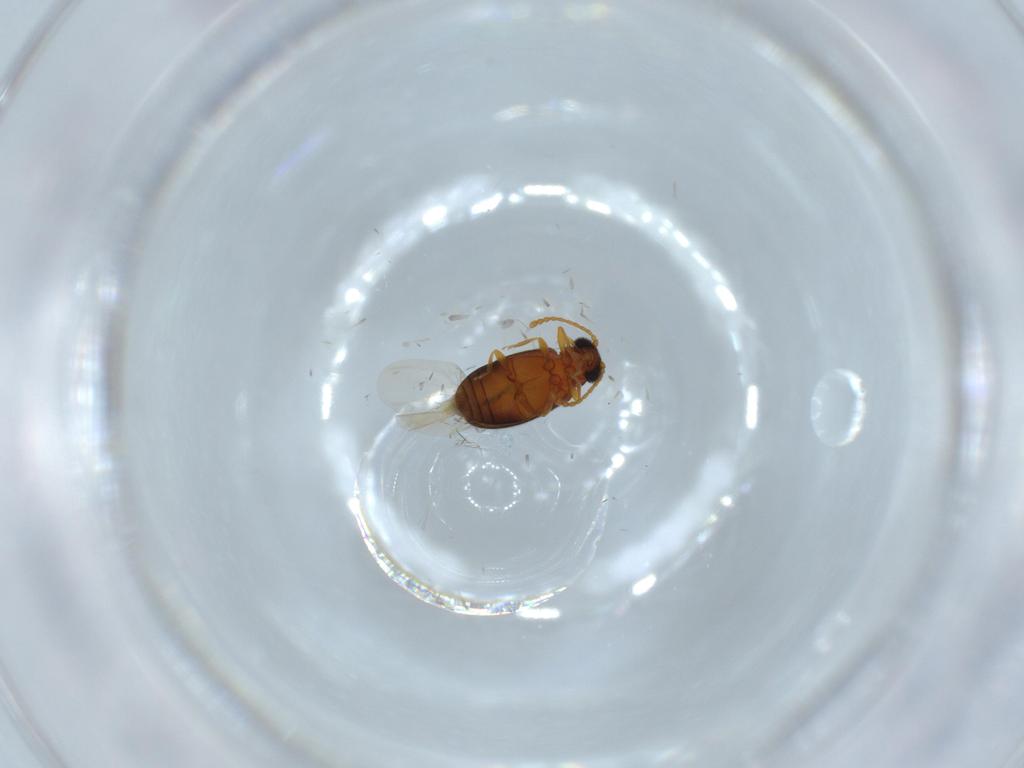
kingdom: Animalia
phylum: Arthropoda
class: Insecta
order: Coleoptera
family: Aderidae
